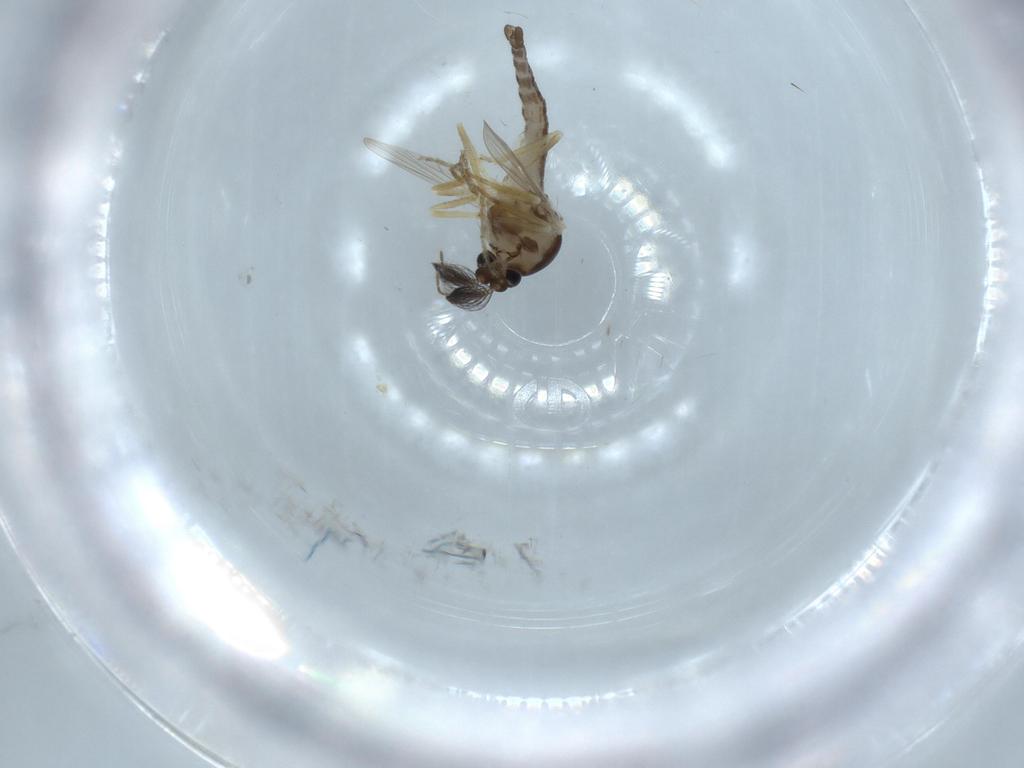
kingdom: Animalia
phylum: Arthropoda
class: Insecta
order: Diptera
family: Ceratopogonidae
